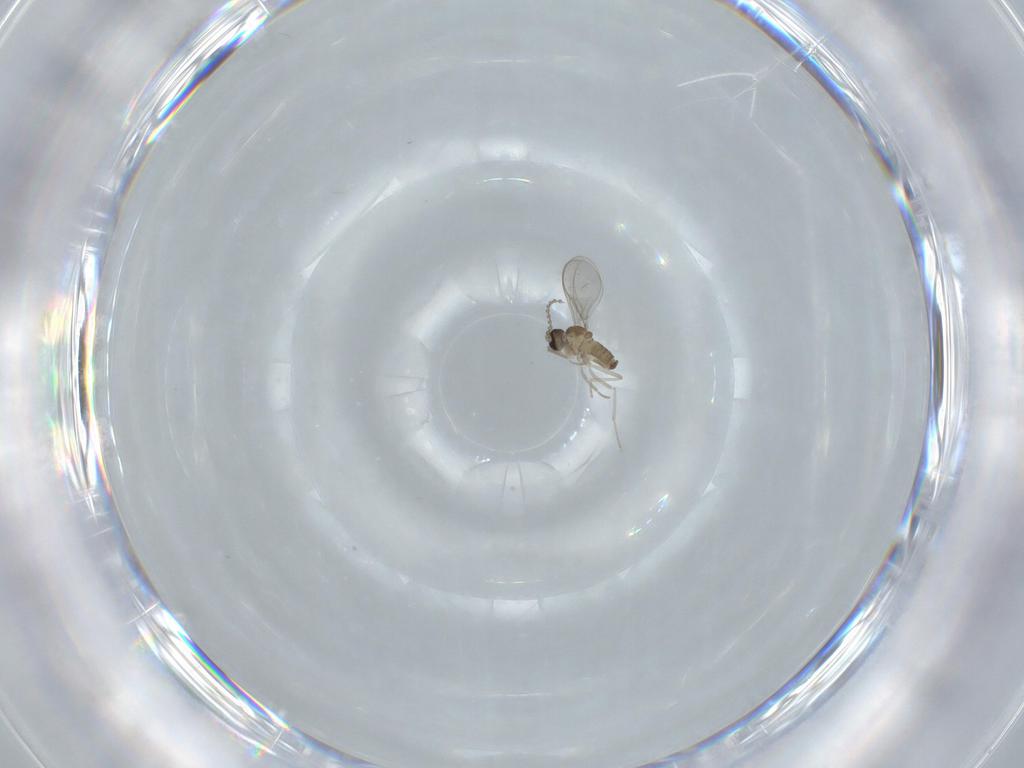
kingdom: Animalia
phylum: Arthropoda
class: Insecta
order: Diptera
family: Cecidomyiidae
